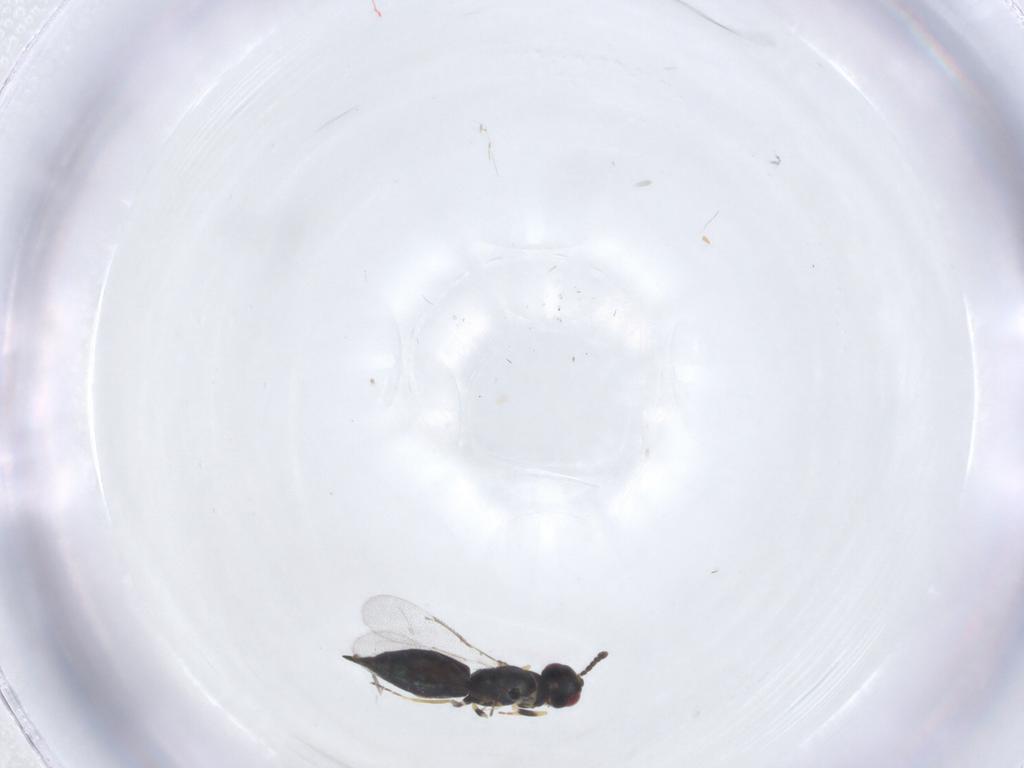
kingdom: Animalia
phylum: Arthropoda
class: Insecta
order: Hymenoptera
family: Eulophidae
